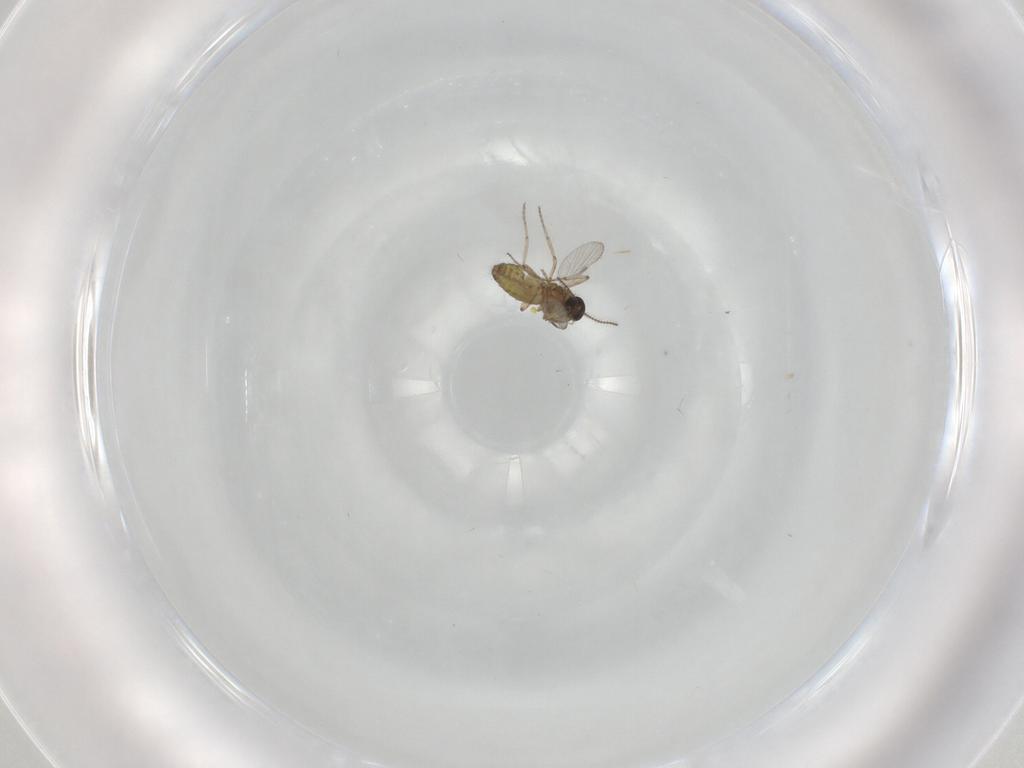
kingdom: Animalia
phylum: Arthropoda
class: Insecta
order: Diptera
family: Ceratopogonidae
